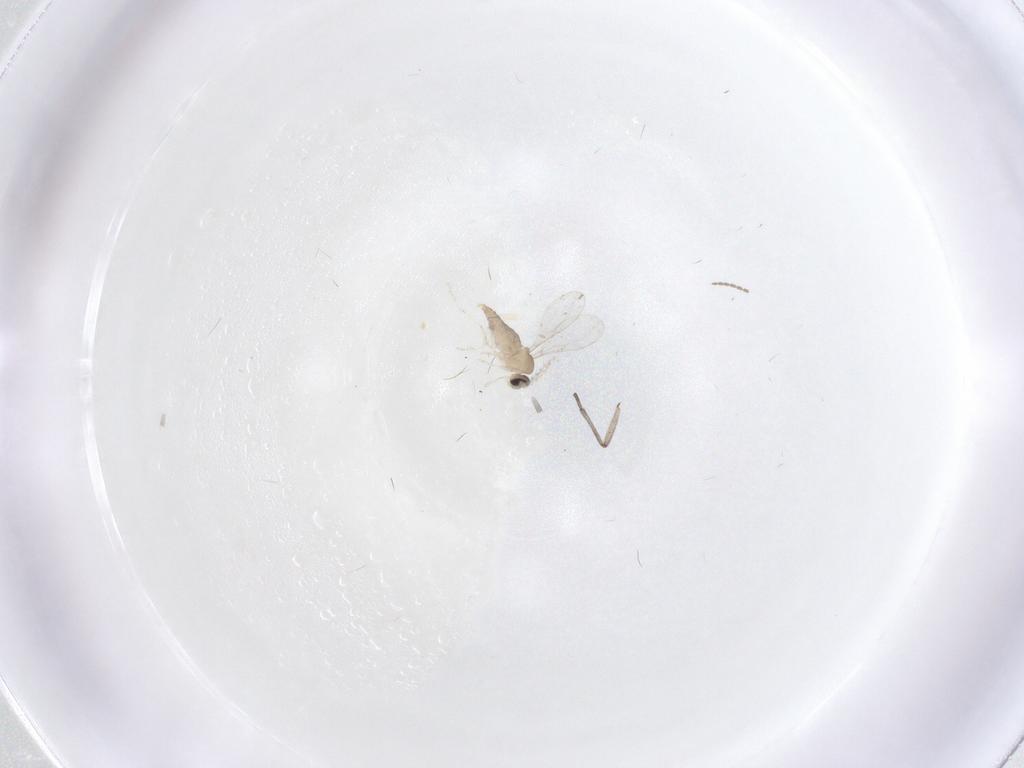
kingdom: Animalia
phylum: Arthropoda
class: Insecta
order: Diptera
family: Cecidomyiidae
